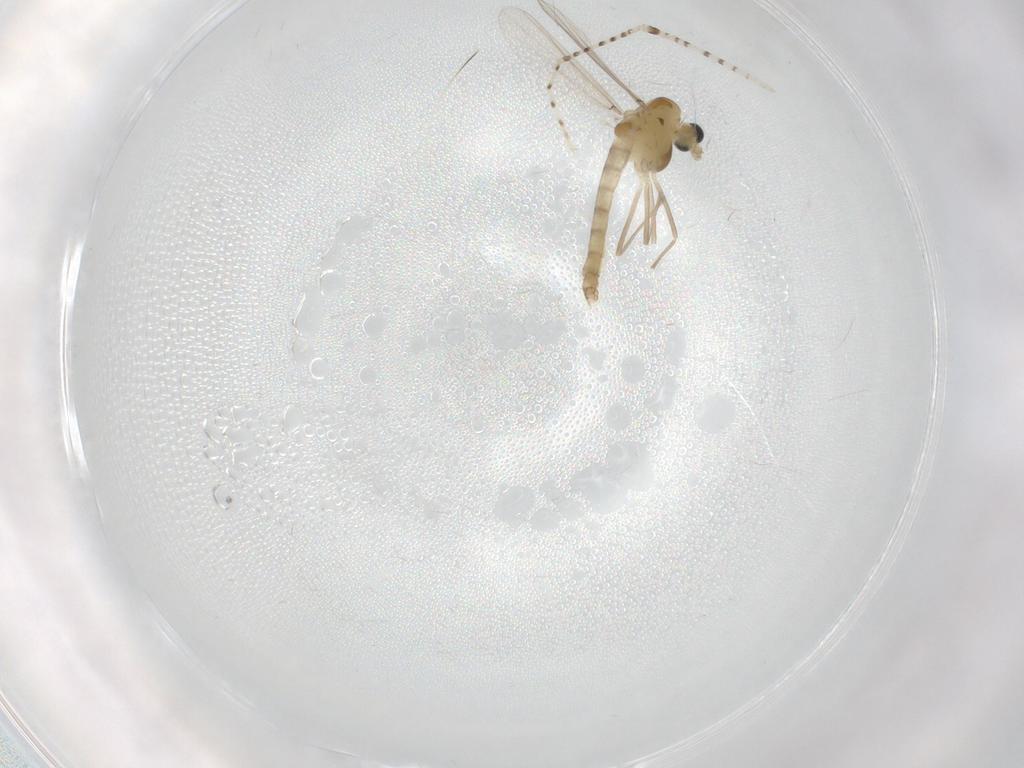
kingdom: Animalia
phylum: Arthropoda
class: Insecta
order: Diptera
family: Chironomidae
